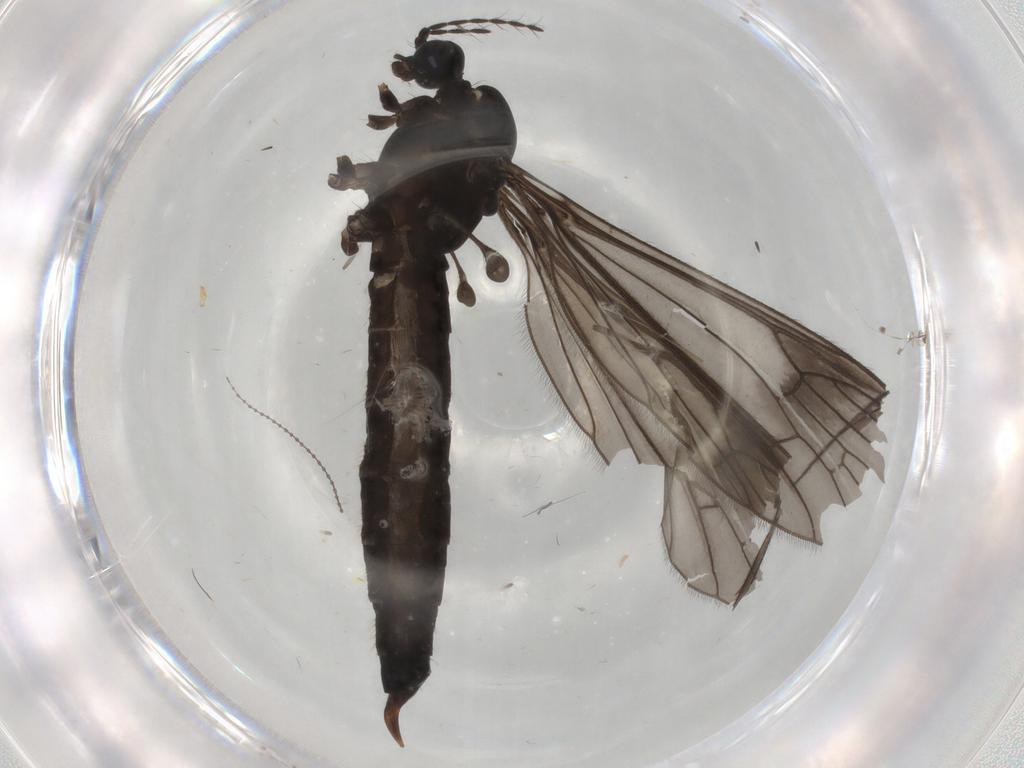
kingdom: Animalia
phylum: Arthropoda
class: Insecta
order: Diptera
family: Limoniidae
